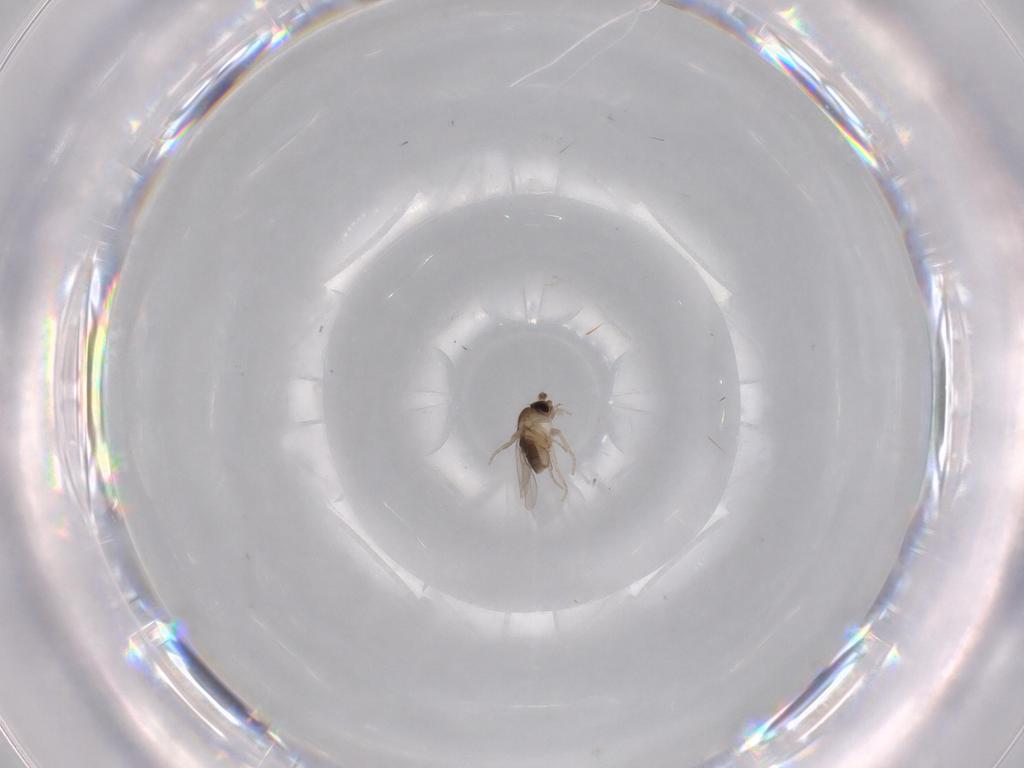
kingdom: Animalia
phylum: Arthropoda
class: Insecta
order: Diptera
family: Phoridae
